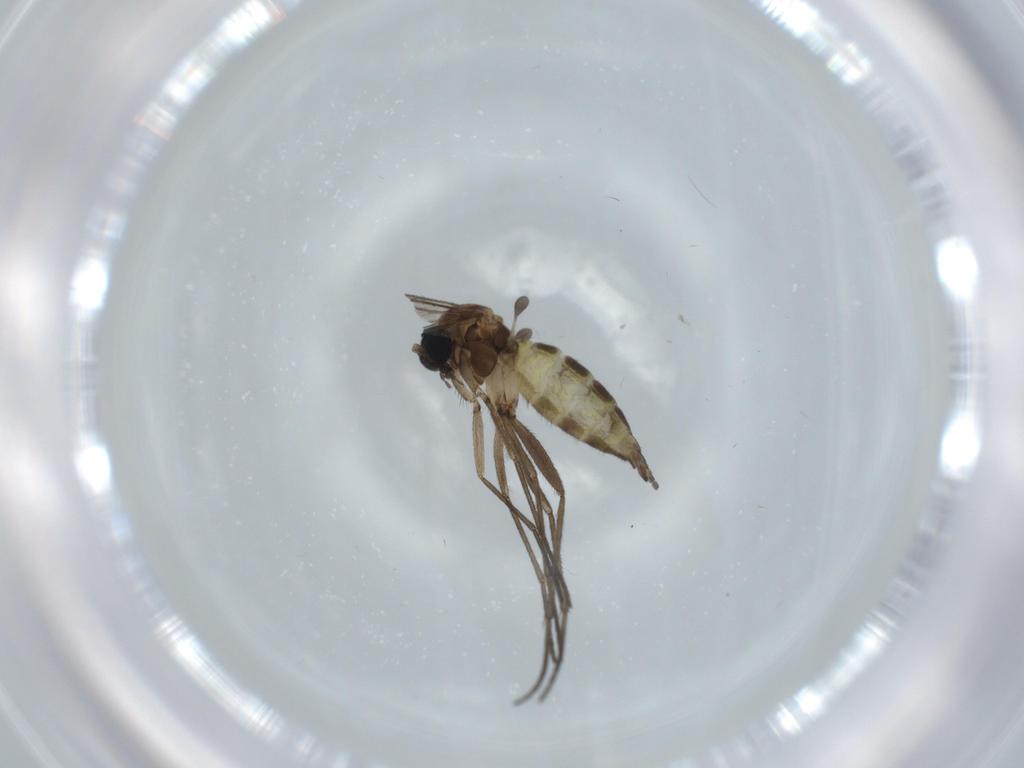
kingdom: Animalia
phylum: Arthropoda
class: Insecta
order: Diptera
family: Sciaridae
